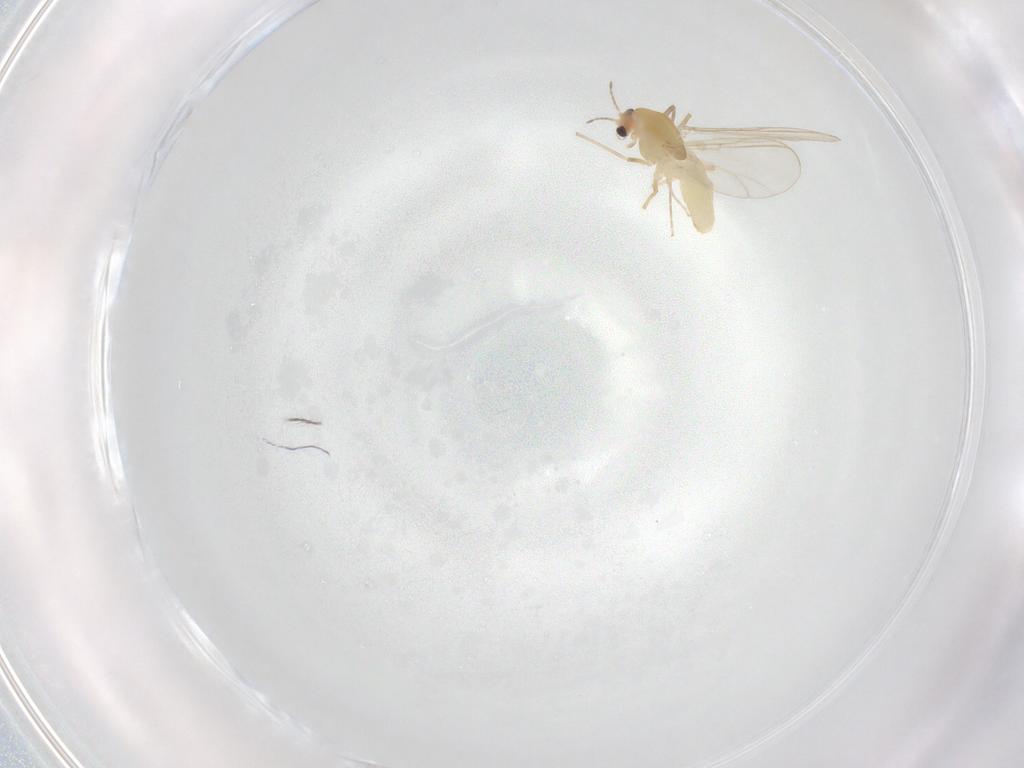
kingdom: Animalia
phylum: Arthropoda
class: Insecta
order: Diptera
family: Chironomidae
